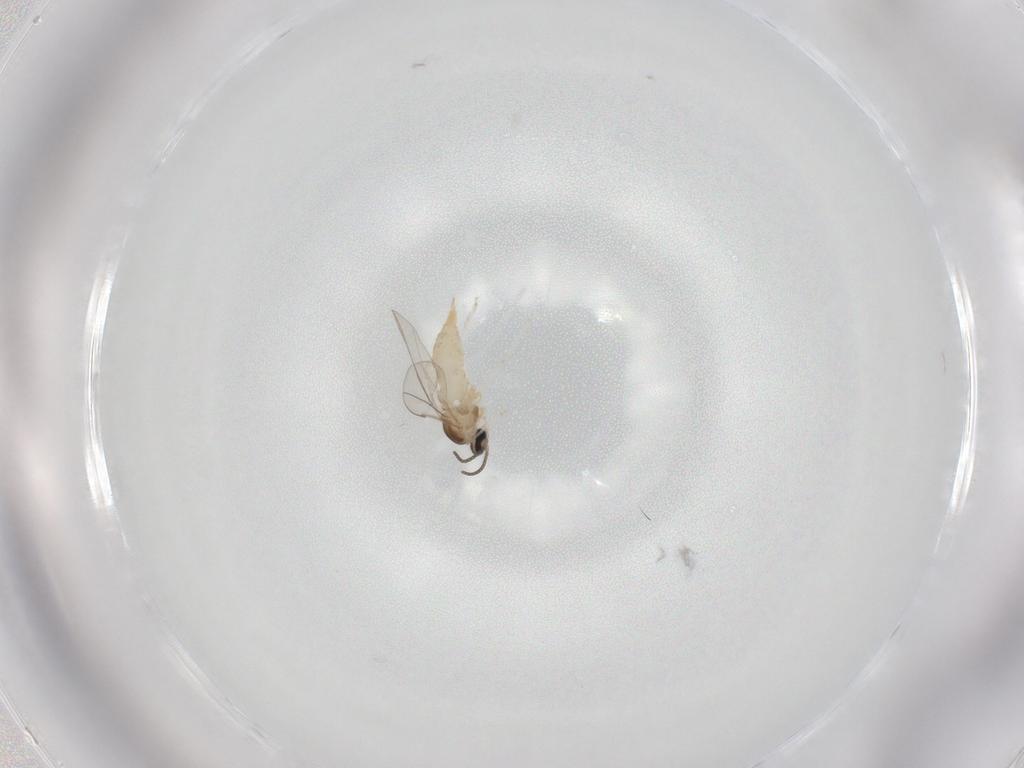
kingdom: Animalia
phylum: Arthropoda
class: Insecta
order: Diptera
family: Cecidomyiidae
